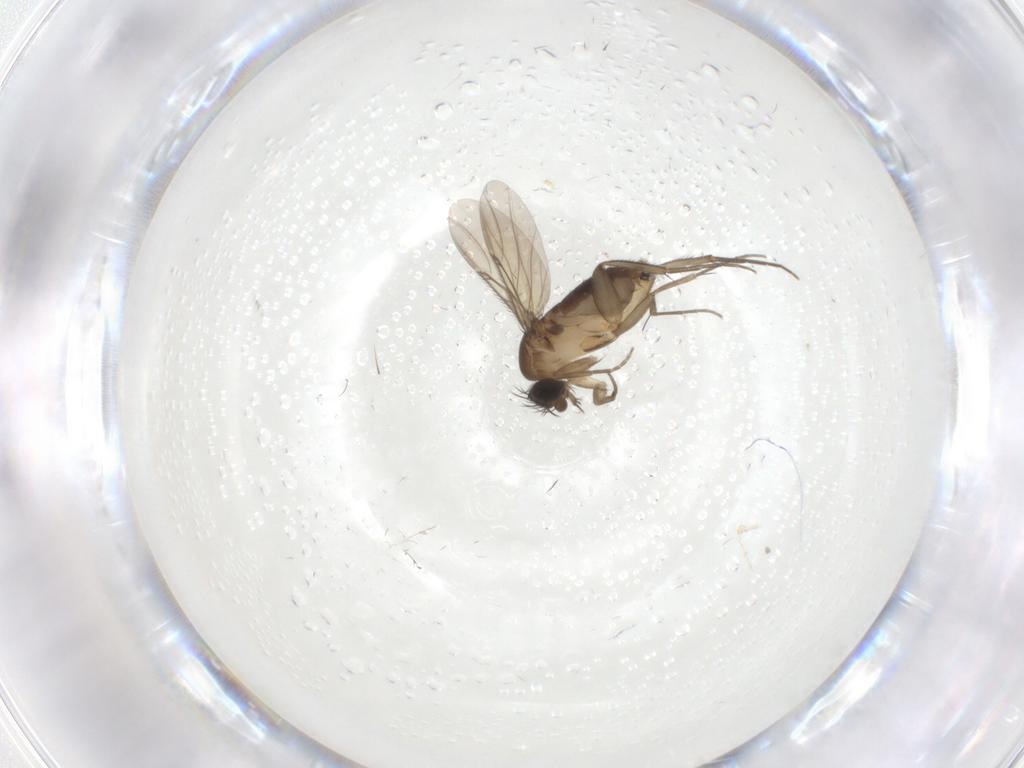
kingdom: Animalia
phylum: Arthropoda
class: Insecta
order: Diptera
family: Phoridae
